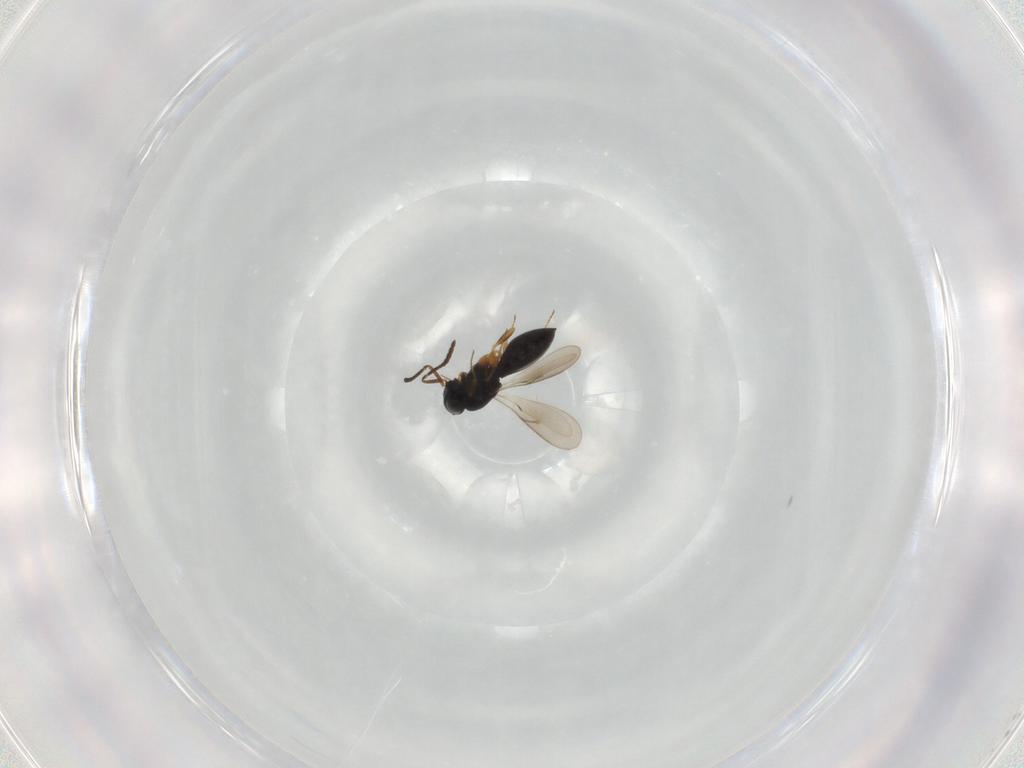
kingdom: Animalia
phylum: Arthropoda
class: Insecta
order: Hymenoptera
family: Scelionidae
